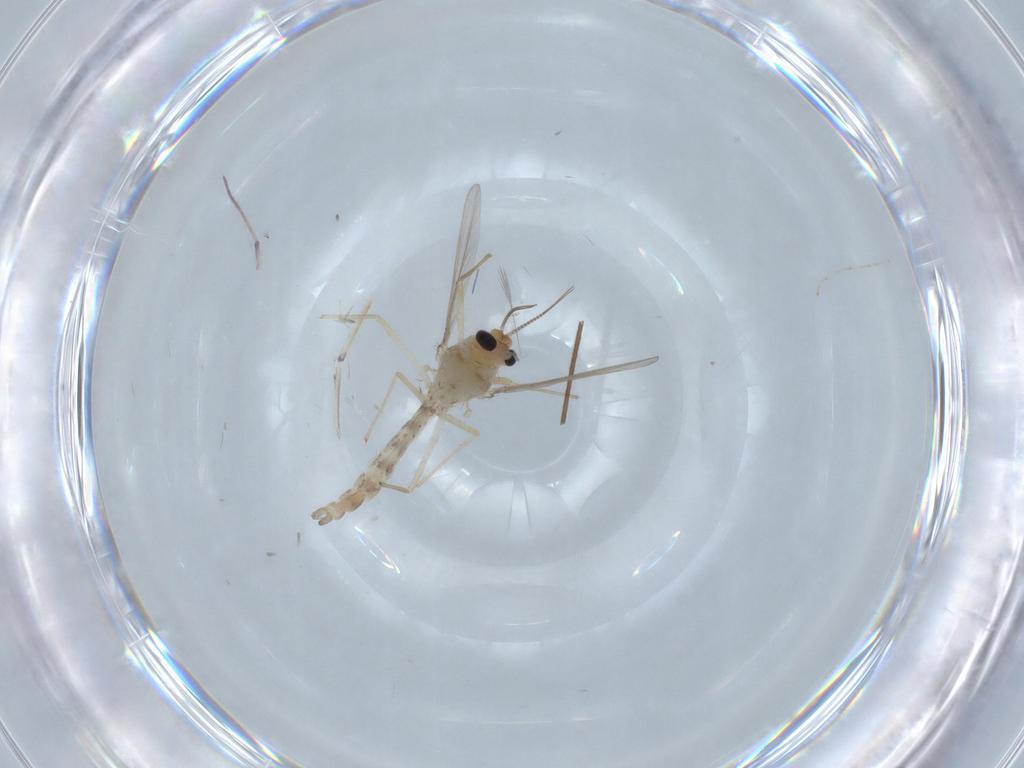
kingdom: Animalia
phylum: Arthropoda
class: Insecta
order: Diptera
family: Chironomidae
